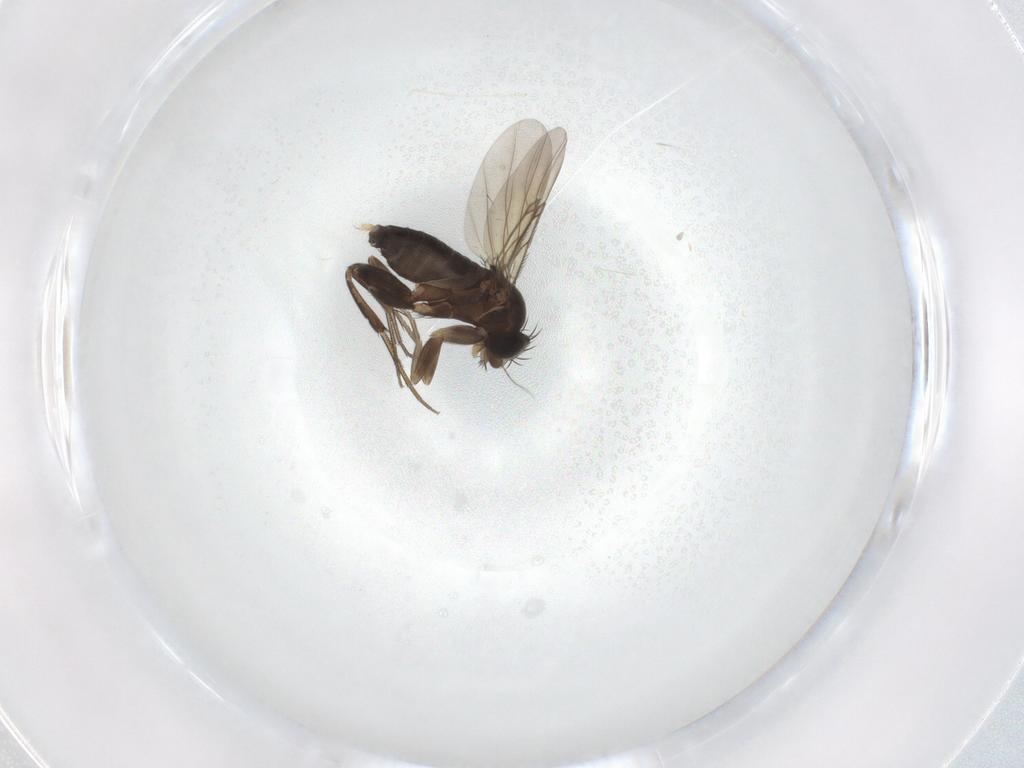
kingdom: Animalia
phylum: Arthropoda
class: Insecta
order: Diptera
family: Phoridae
